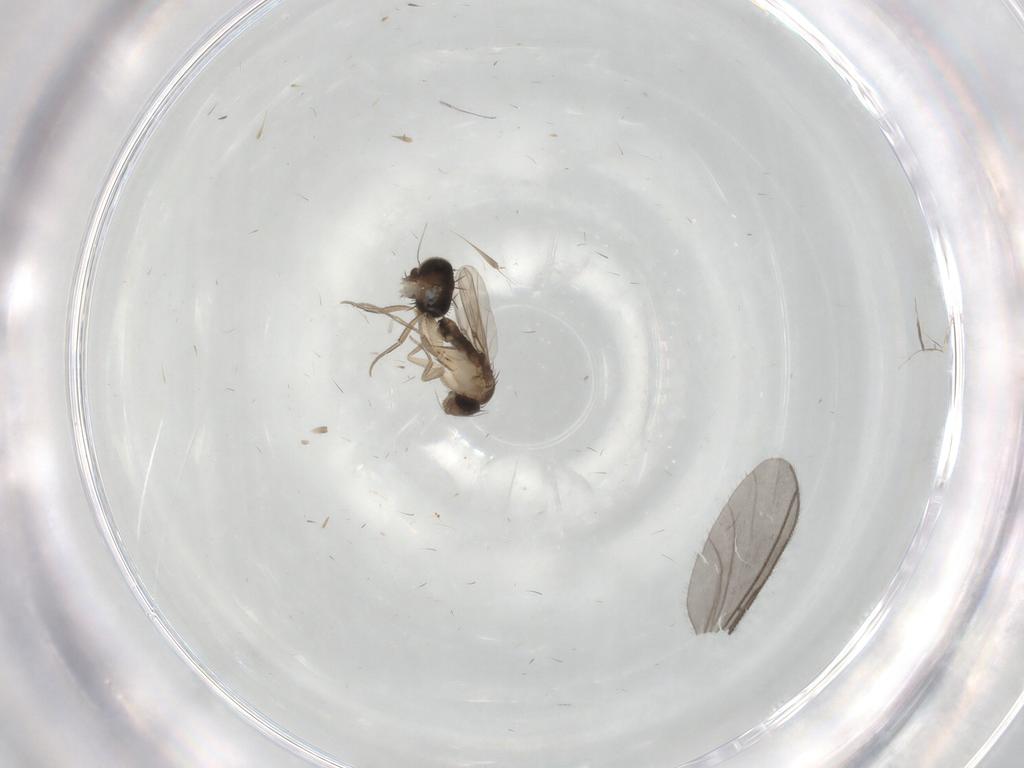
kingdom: Animalia
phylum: Arthropoda
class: Insecta
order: Diptera
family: Phoridae
